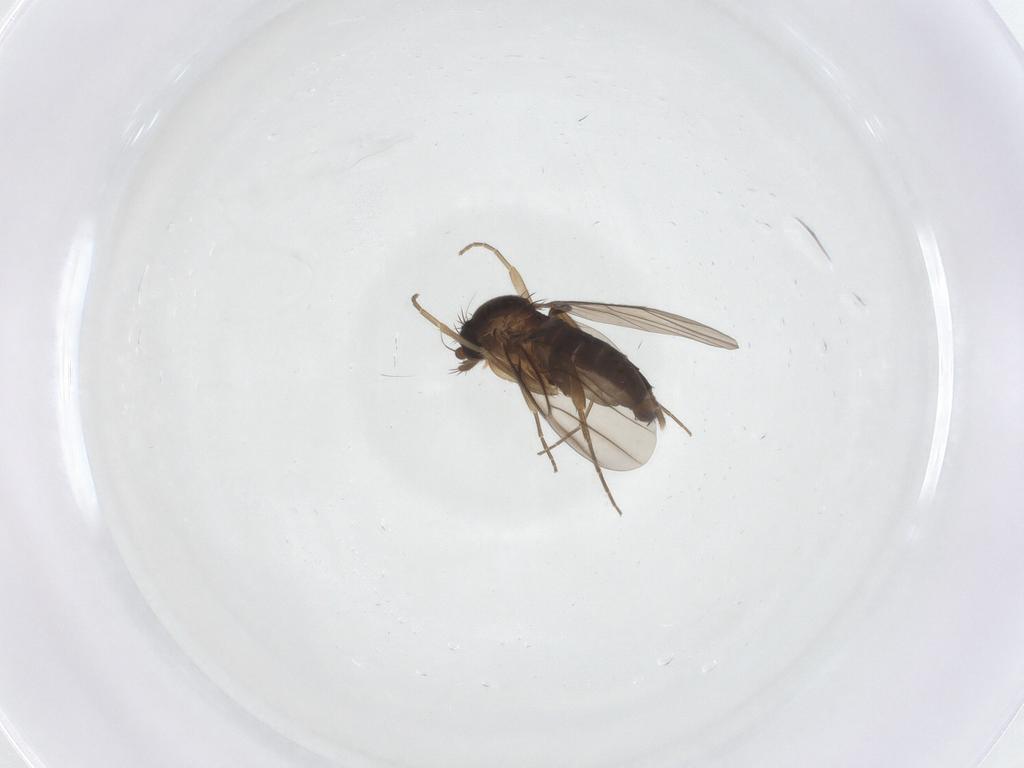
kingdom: Animalia
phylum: Arthropoda
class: Insecta
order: Diptera
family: Phoridae
